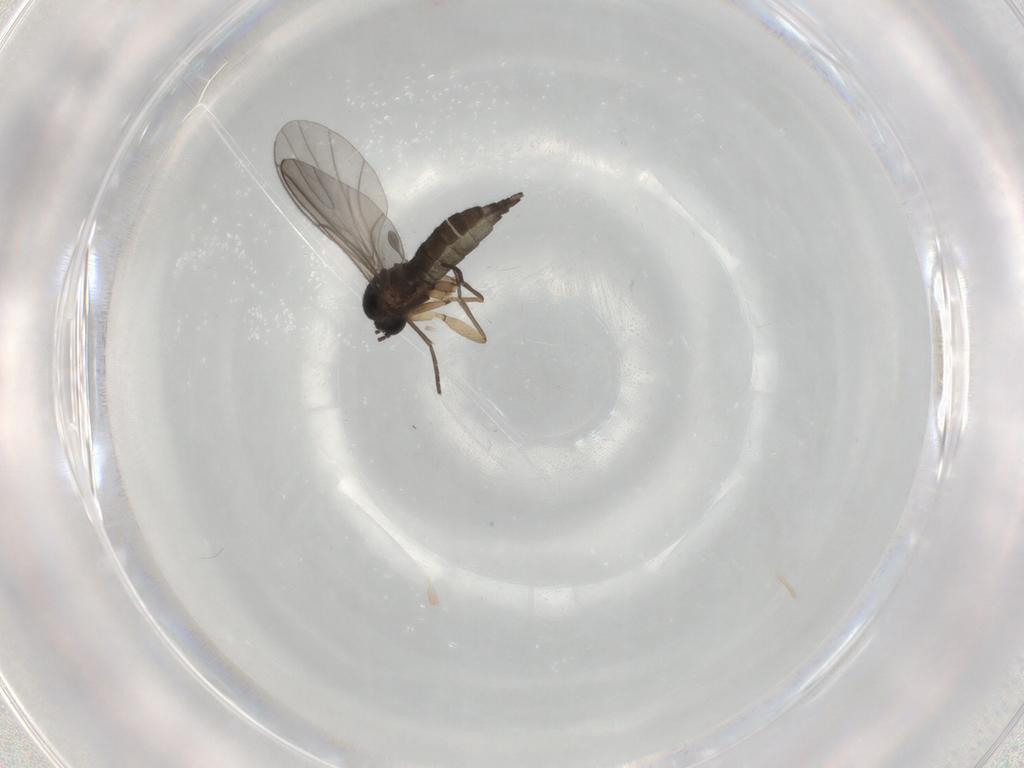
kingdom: Animalia
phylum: Arthropoda
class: Insecta
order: Diptera
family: Sciaridae
